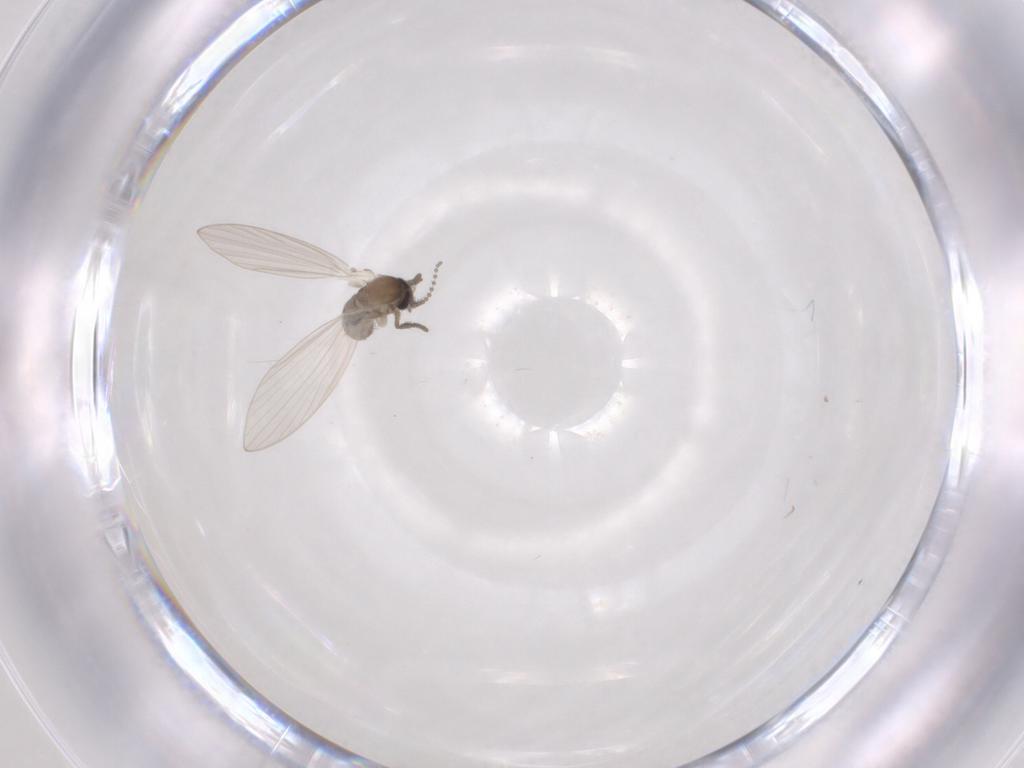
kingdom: Animalia
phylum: Arthropoda
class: Insecta
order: Diptera
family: Psychodidae
